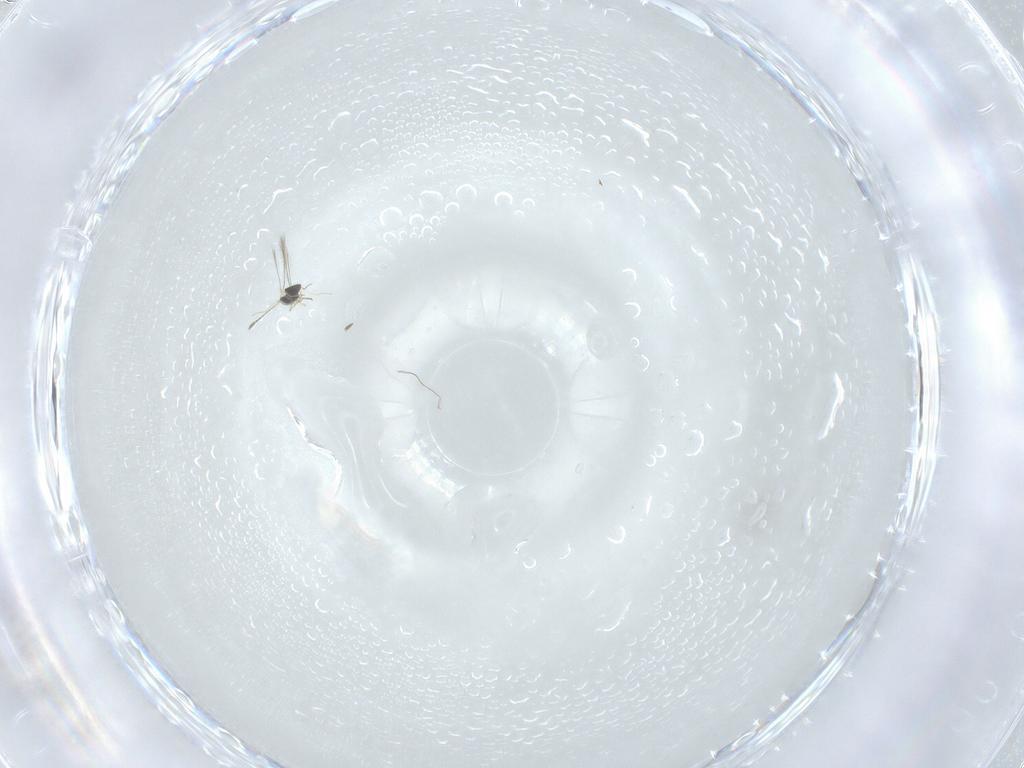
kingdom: Animalia
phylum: Arthropoda
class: Insecta
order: Hymenoptera
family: Mymaridae
